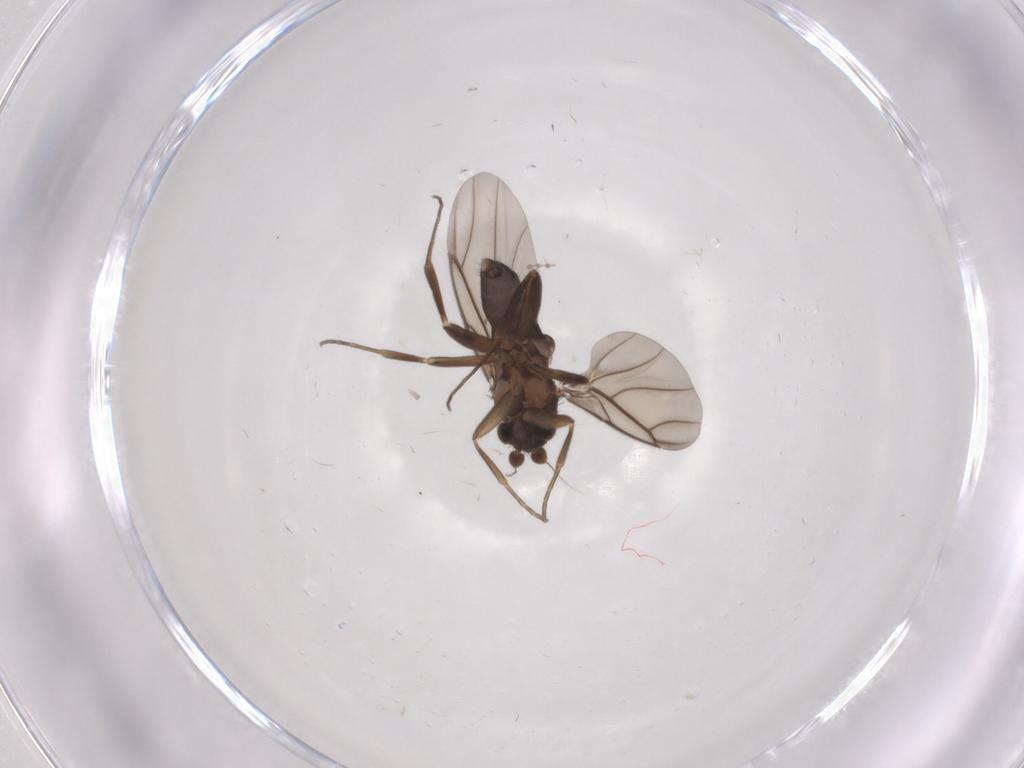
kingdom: Animalia
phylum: Arthropoda
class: Insecta
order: Diptera
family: Cecidomyiidae
